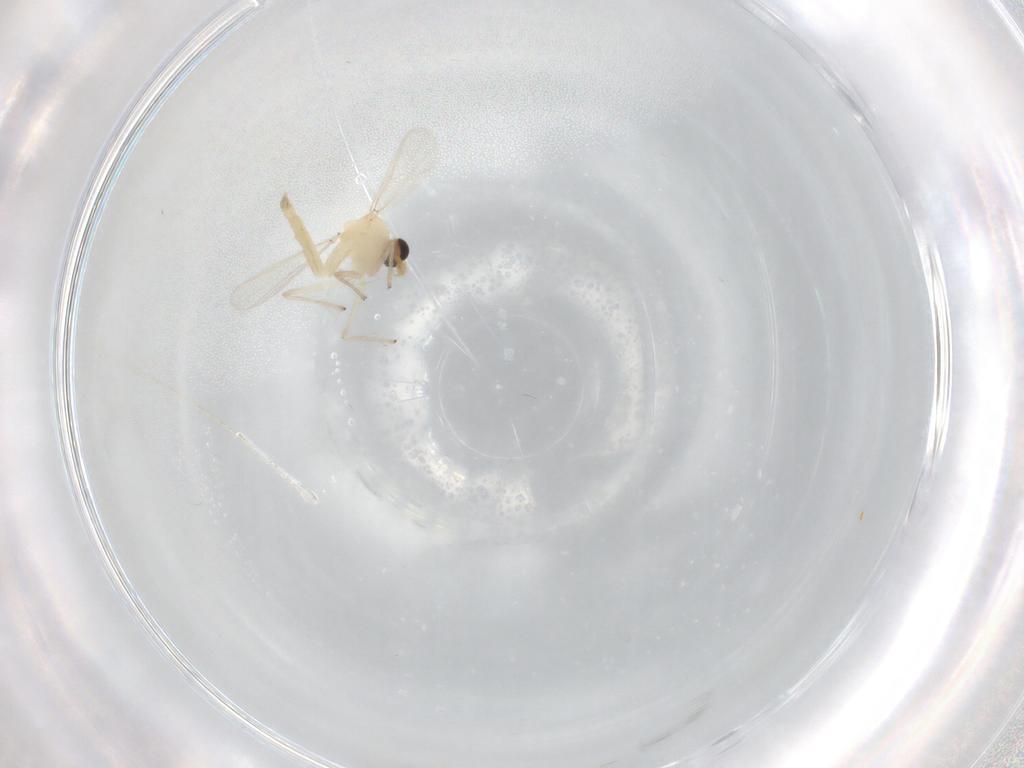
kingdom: Animalia
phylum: Arthropoda
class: Insecta
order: Diptera
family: Chironomidae
